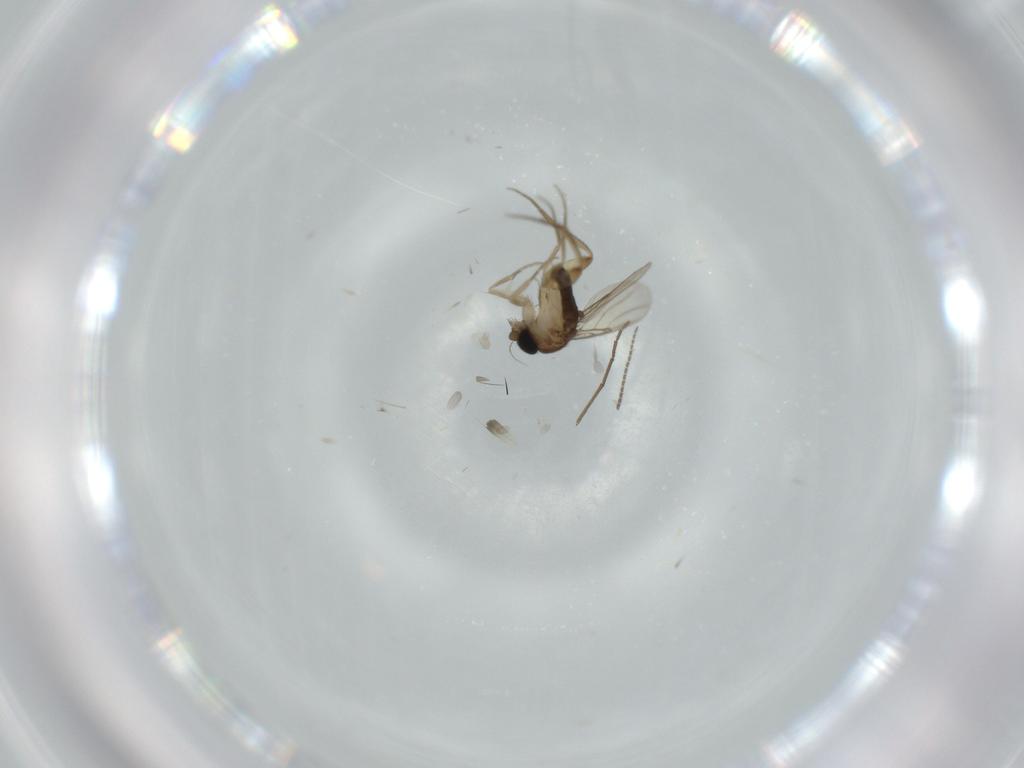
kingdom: Animalia
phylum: Arthropoda
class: Insecta
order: Diptera
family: Phoridae
